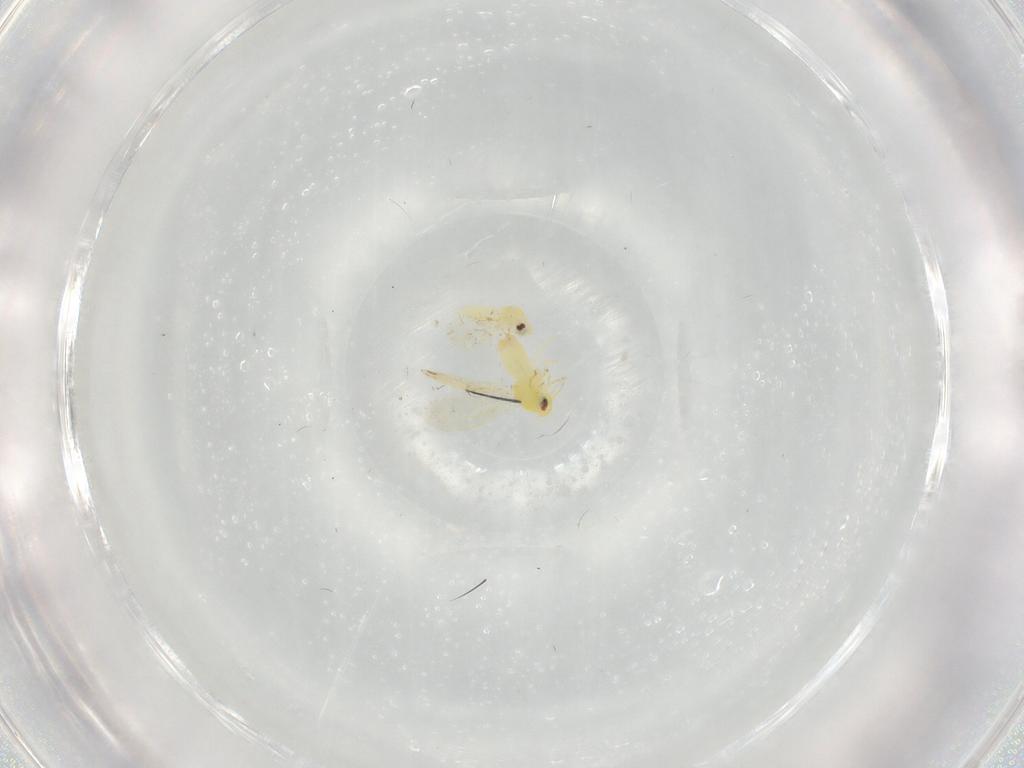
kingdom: Animalia
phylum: Arthropoda
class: Insecta
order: Hemiptera
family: Aleyrodidae
